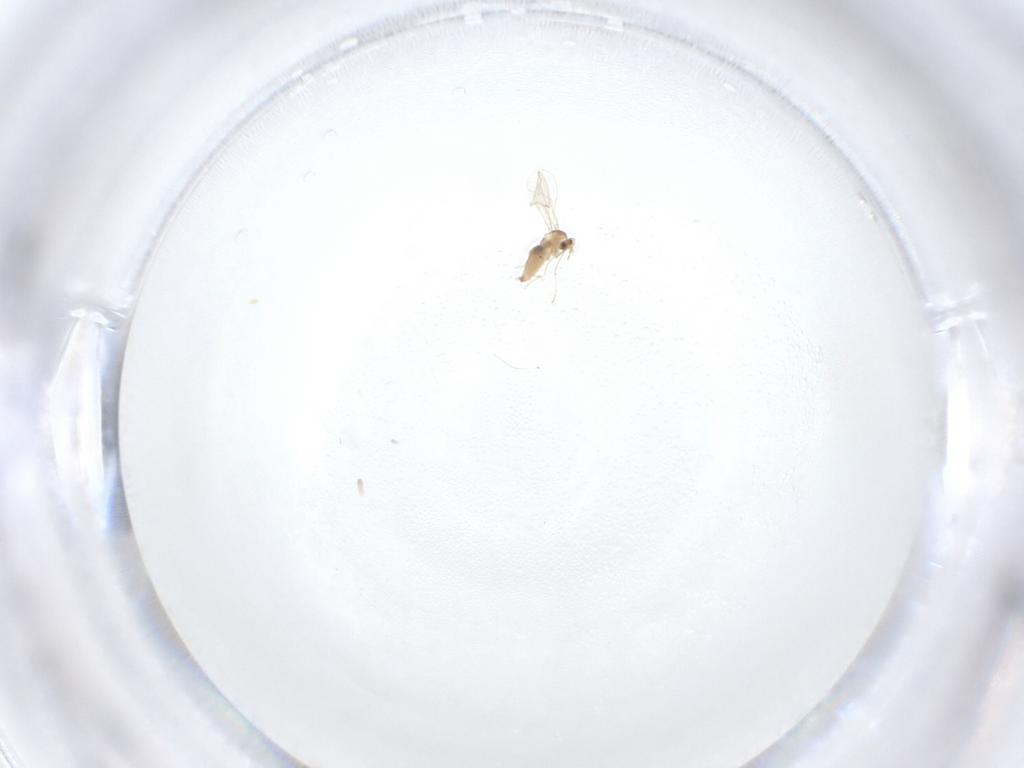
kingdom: Animalia
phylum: Arthropoda
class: Insecta
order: Diptera
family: Cecidomyiidae
